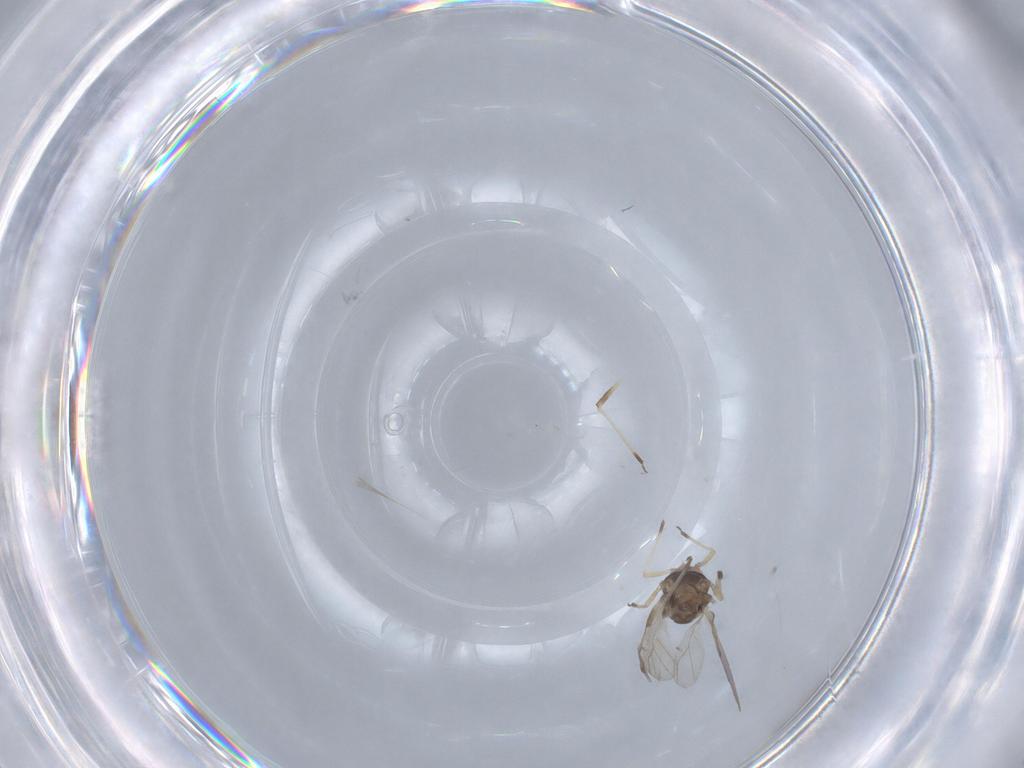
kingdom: Animalia
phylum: Arthropoda
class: Insecta
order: Hemiptera
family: Aphididae
